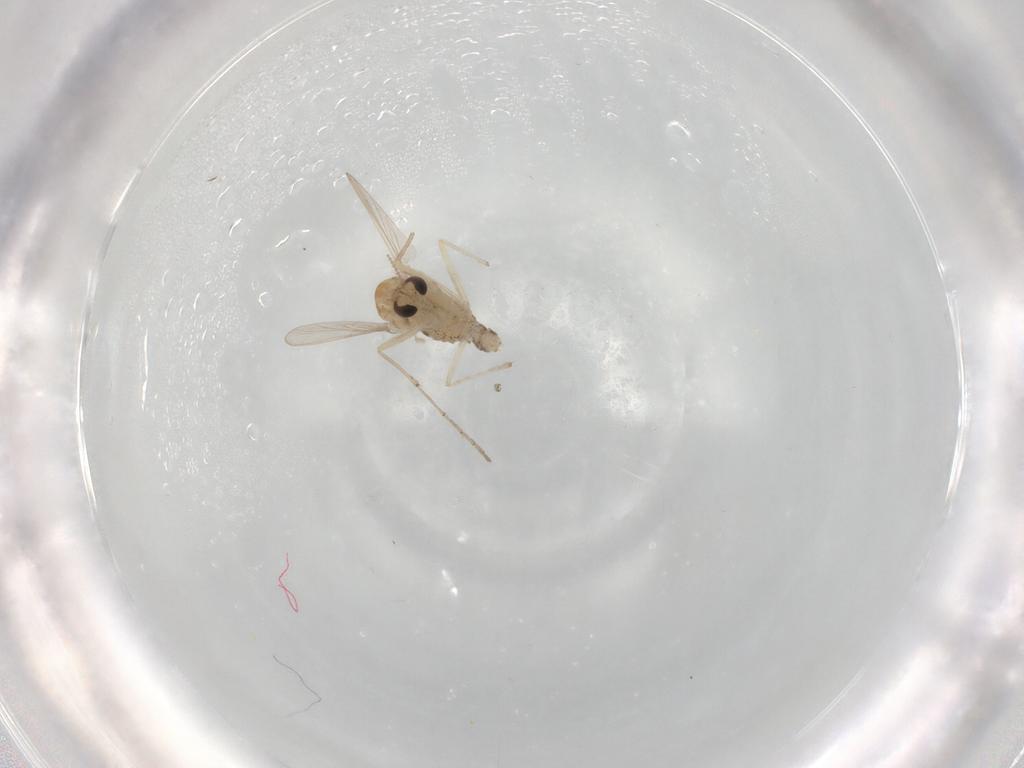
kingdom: Animalia
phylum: Arthropoda
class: Insecta
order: Diptera
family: Chironomidae
